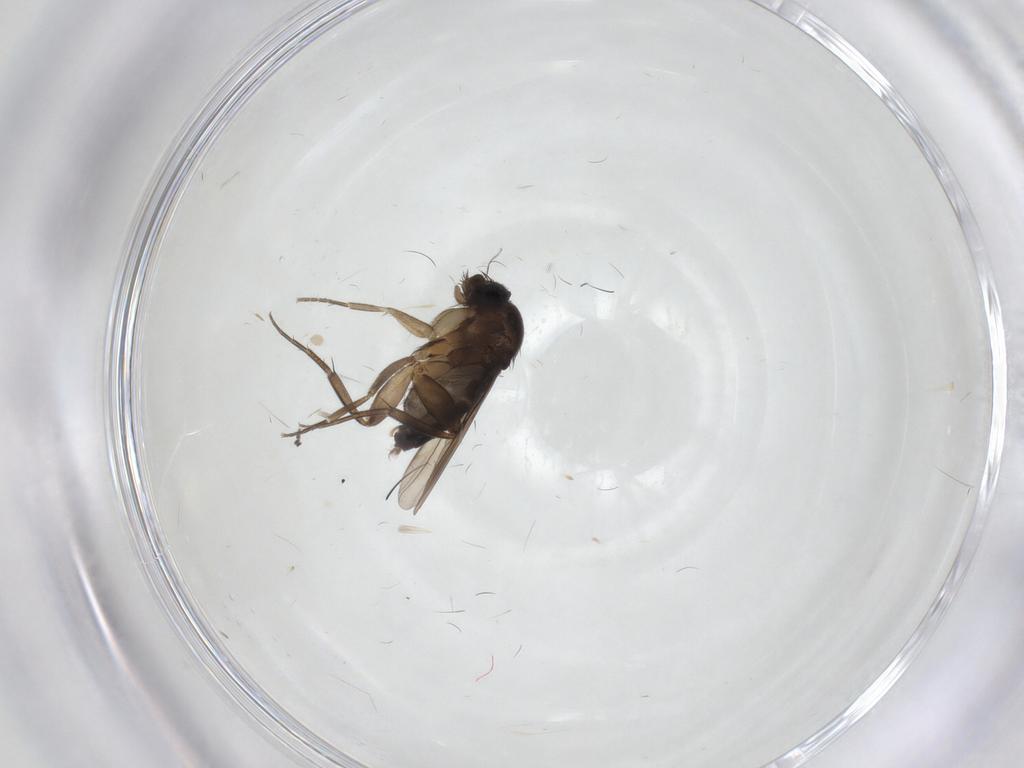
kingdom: Animalia
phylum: Arthropoda
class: Insecta
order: Diptera
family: Phoridae
